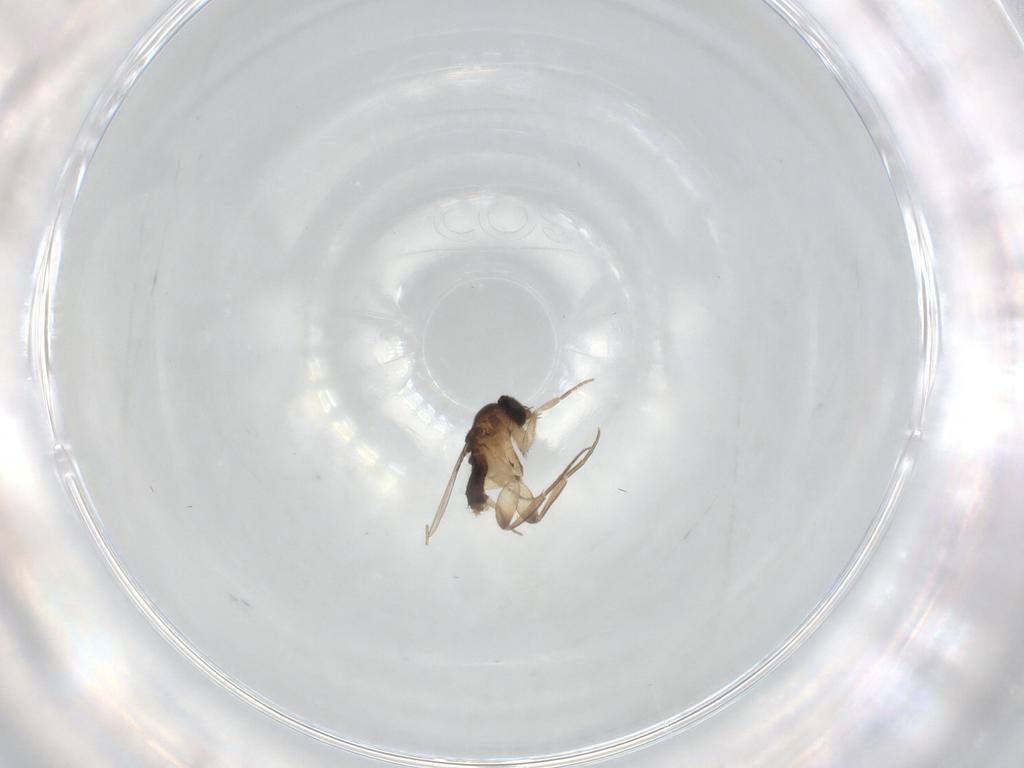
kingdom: Animalia
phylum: Arthropoda
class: Insecta
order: Diptera
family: Phoridae
